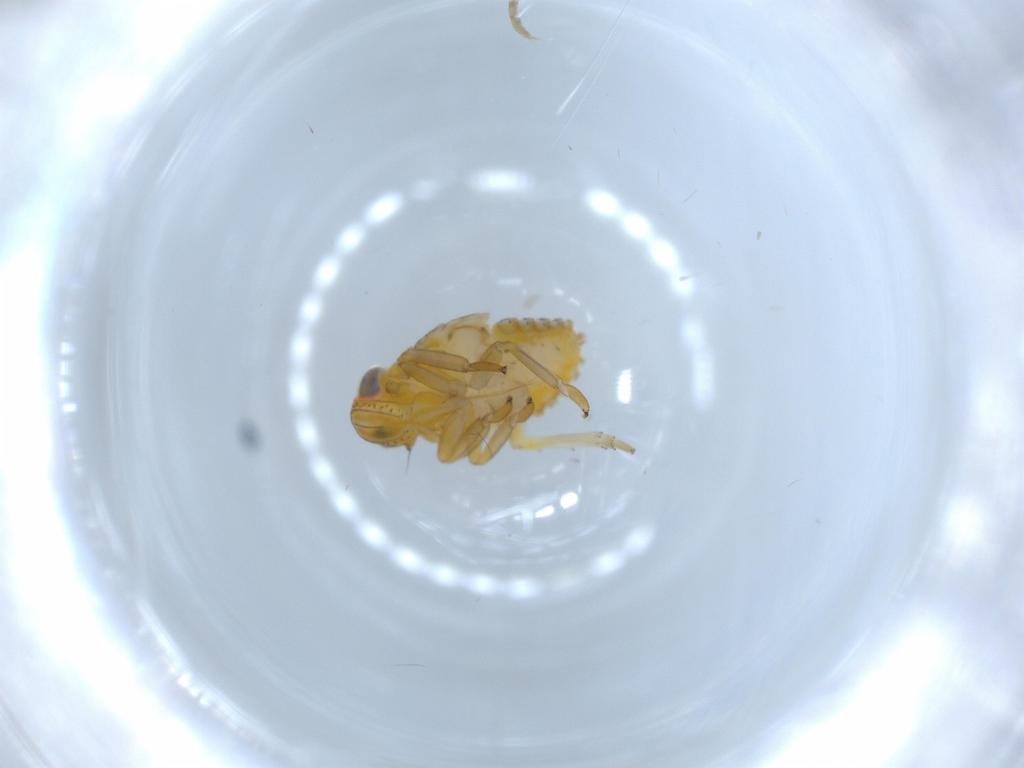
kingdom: Animalia
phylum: Arthropoda
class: Insecta
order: Hemiptera
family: Issidae
